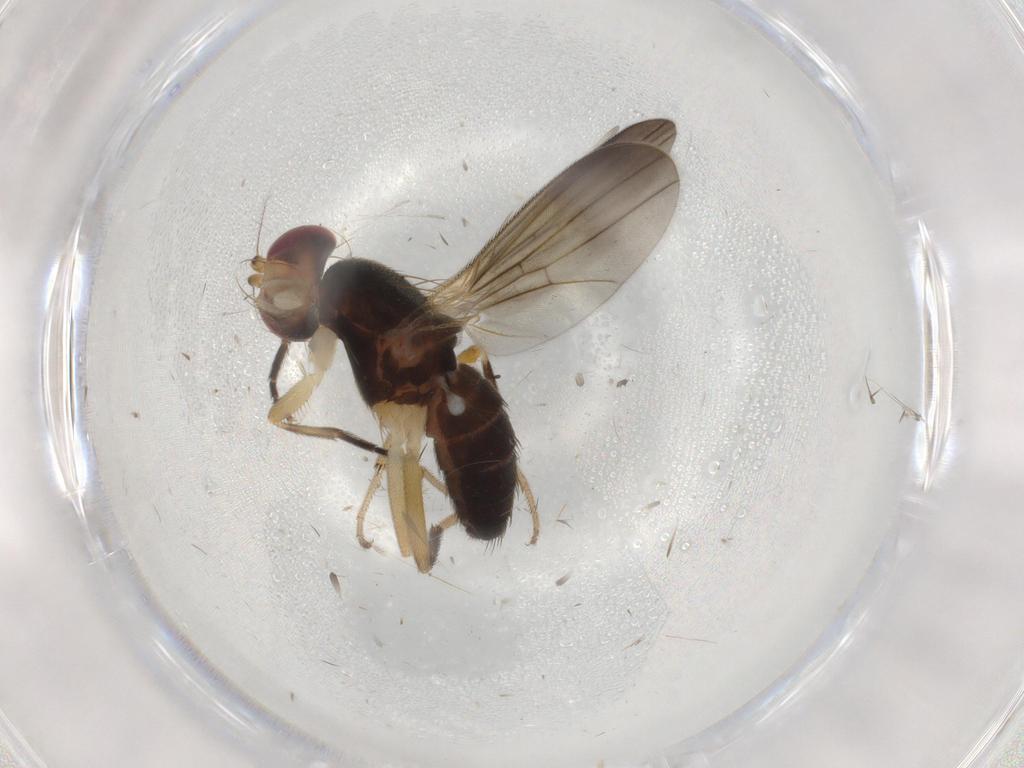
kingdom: Animalia
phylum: Arthropoda
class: Insecta
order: Diptera
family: Clusiidae
